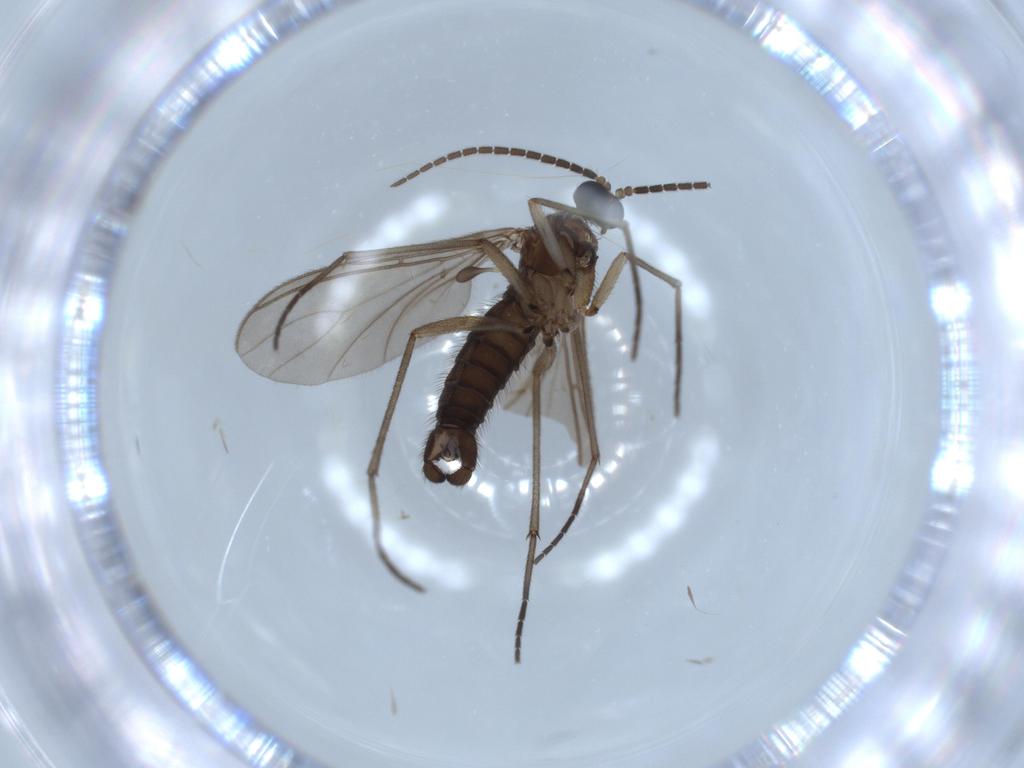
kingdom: Animalia
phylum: Arthropoda
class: Insecta
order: Diptera
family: Sciaridae
